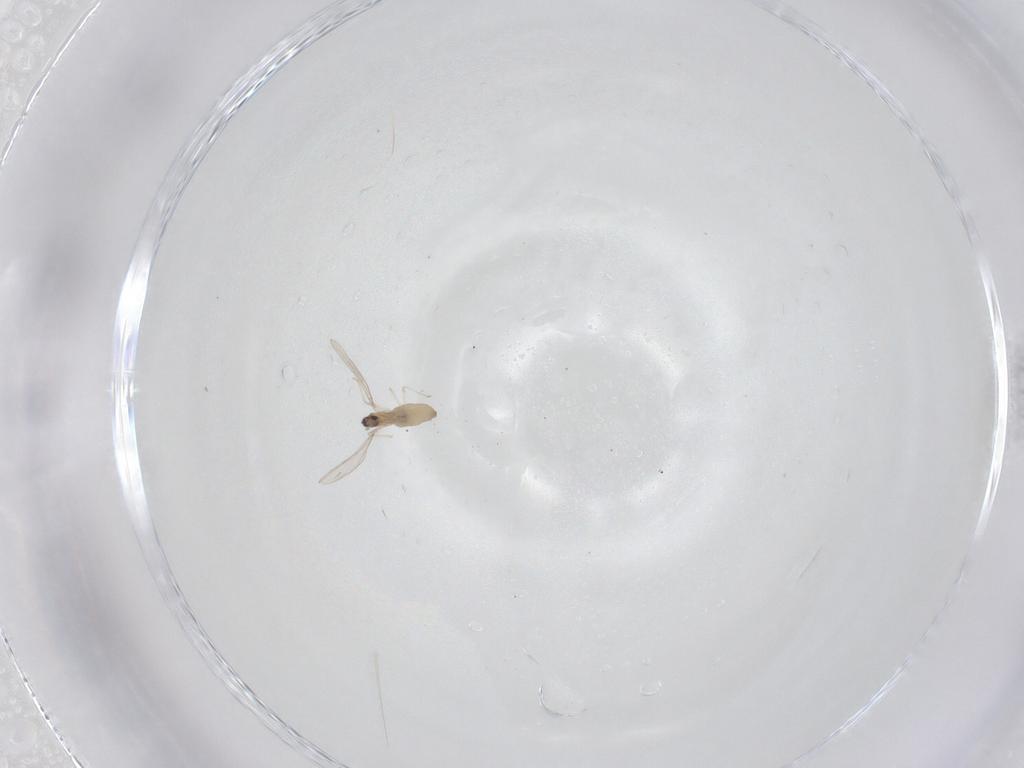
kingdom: Animalia
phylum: Arthropoda
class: Insecta
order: Diptera
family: Cecidomyiidae
